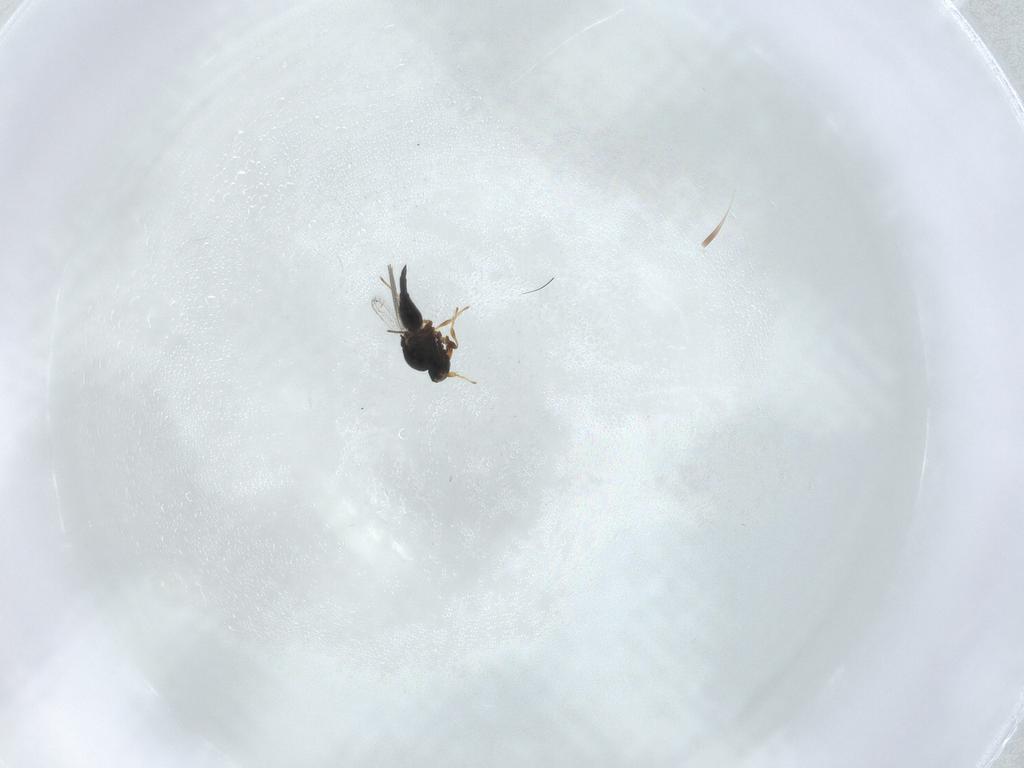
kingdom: Animalia
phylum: Arthropoda
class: Insecta
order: Hymenoptera
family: Platygastridae
